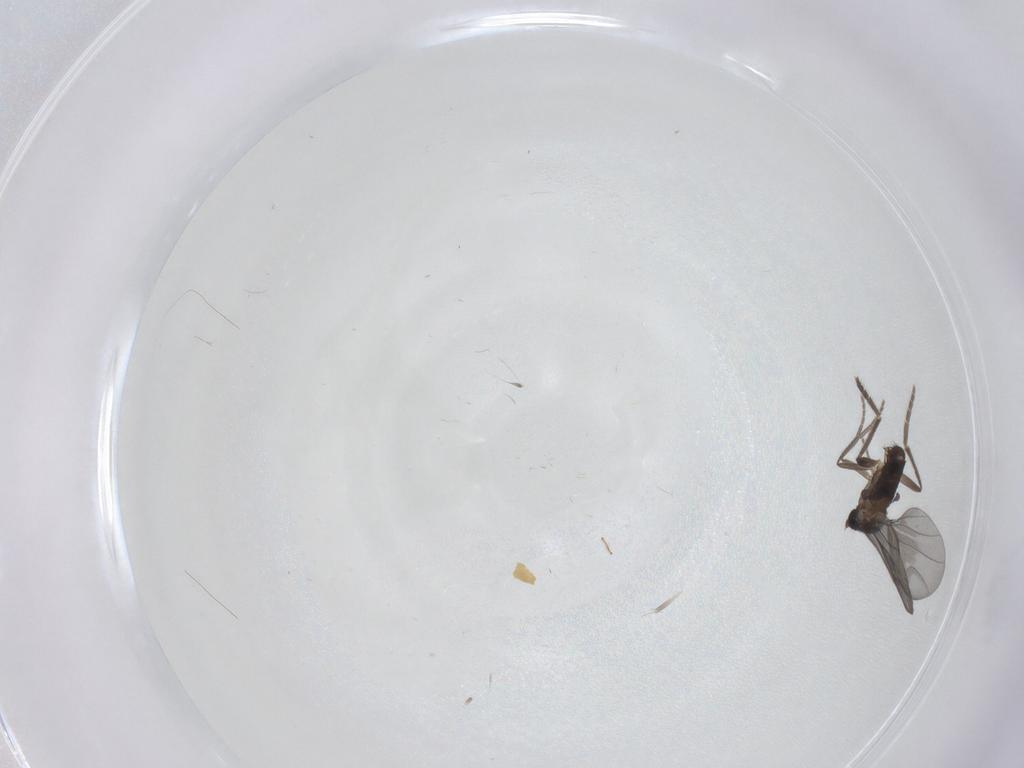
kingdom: Animalia
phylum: Arthropoda
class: Insecta
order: Diptera
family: Phoridae
